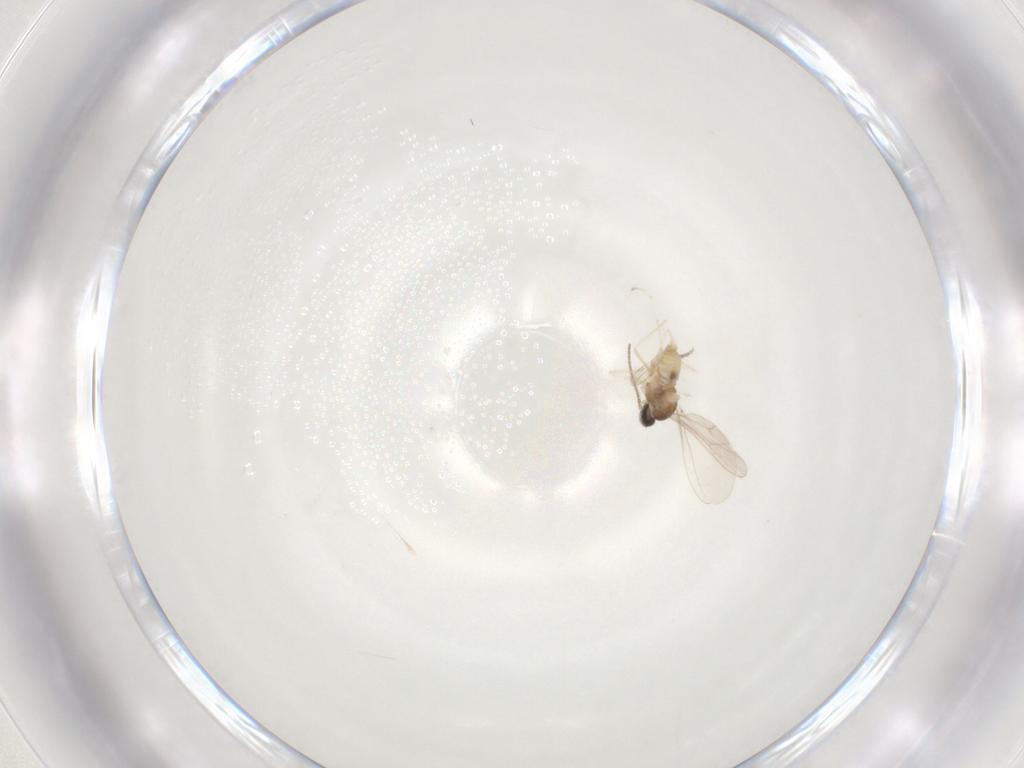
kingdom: Animalia
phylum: Arthropoda
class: Insecta
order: Diptera
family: Cecidomyiidae
